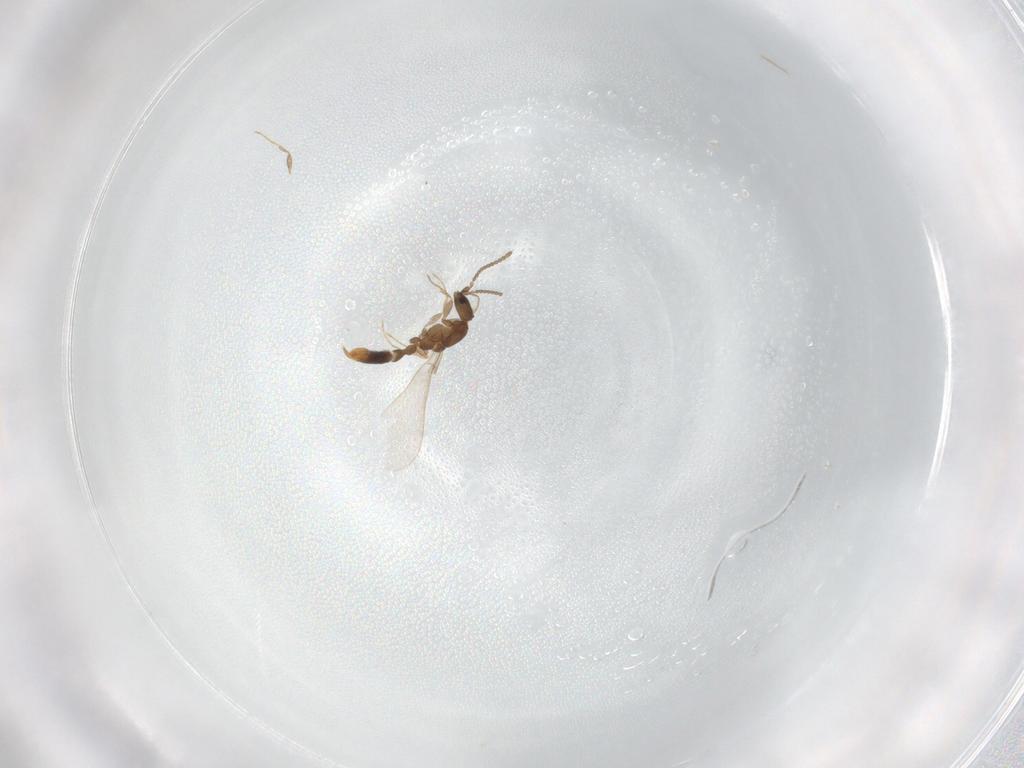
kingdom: Animalia
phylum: Arthropoda
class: Insecta
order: Hymenoptera
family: Formicidae
